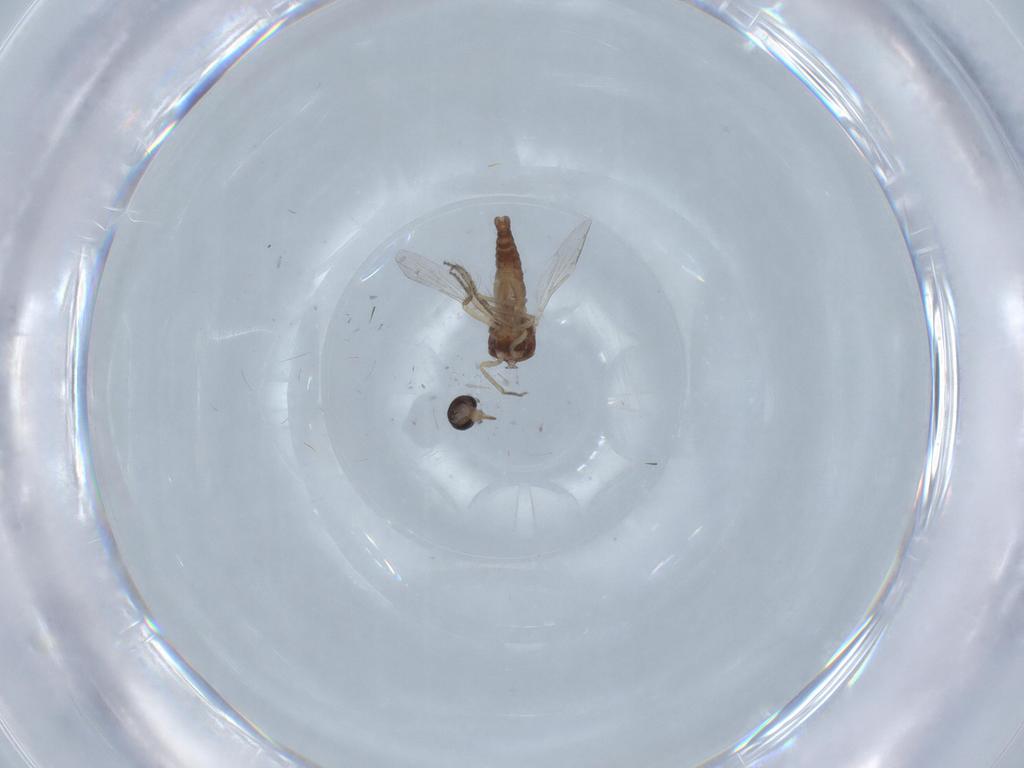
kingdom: Animalia
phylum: Arthropoda
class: Insecta
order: Diptera
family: Ceratopogonidae
